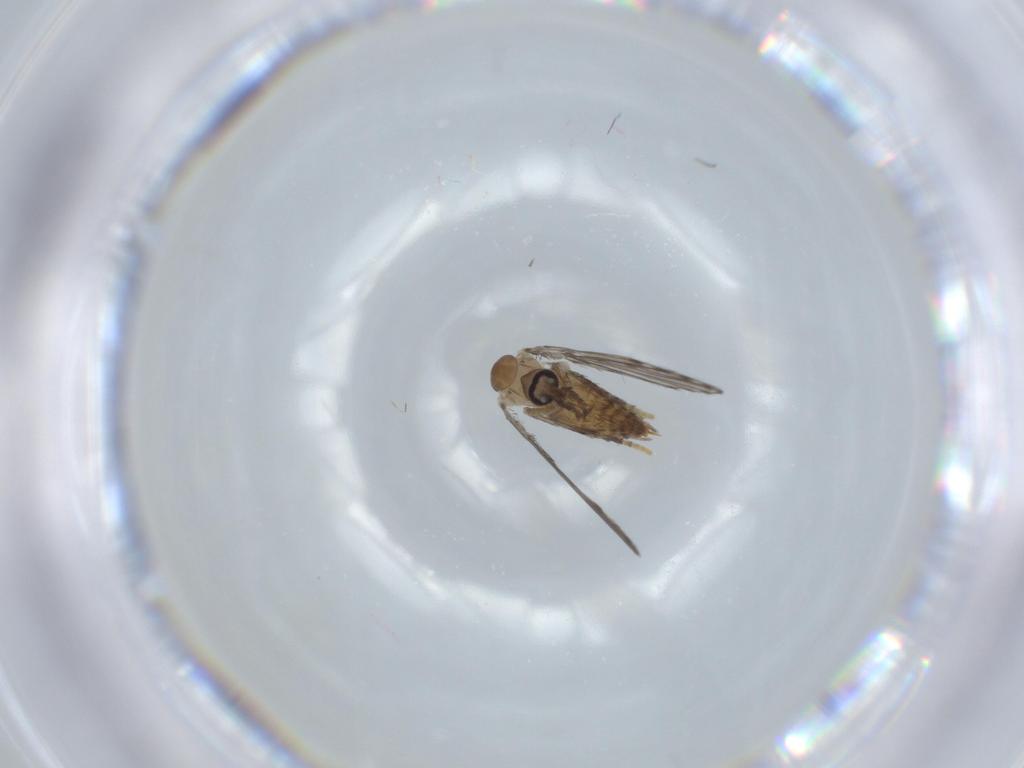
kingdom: Animalia
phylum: Arthropoda
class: Insecta
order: Diptera
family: Psychodidae
